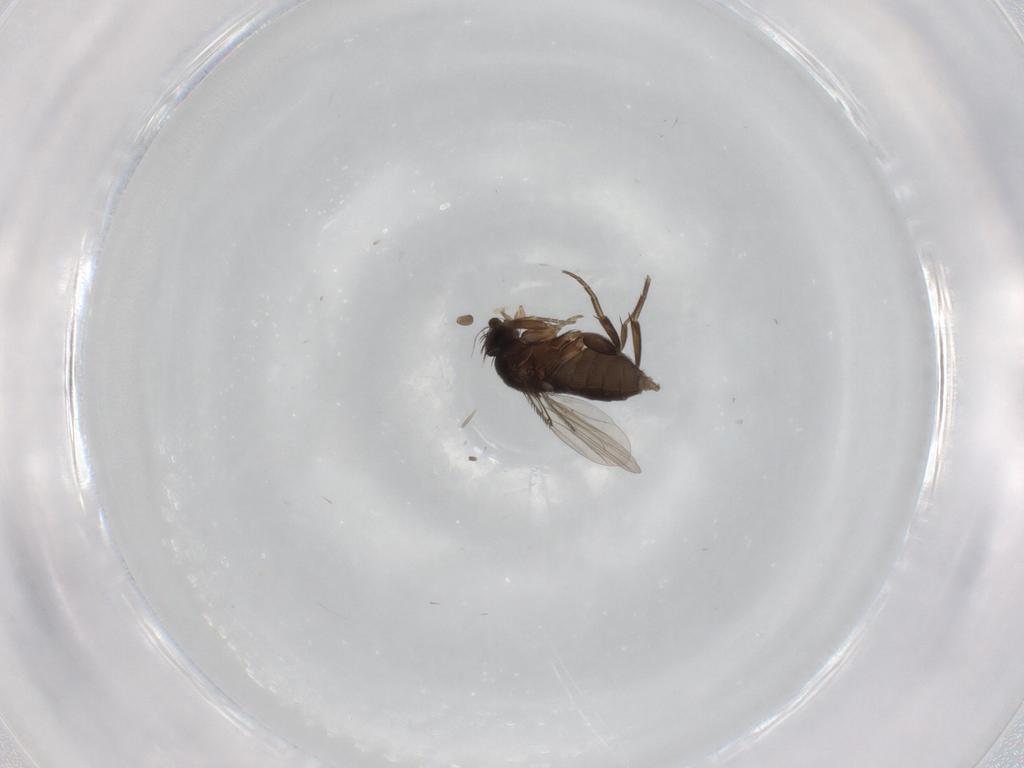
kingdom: Animalia
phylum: Arthropoda
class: Insecta
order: Diptera
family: Phoridae
